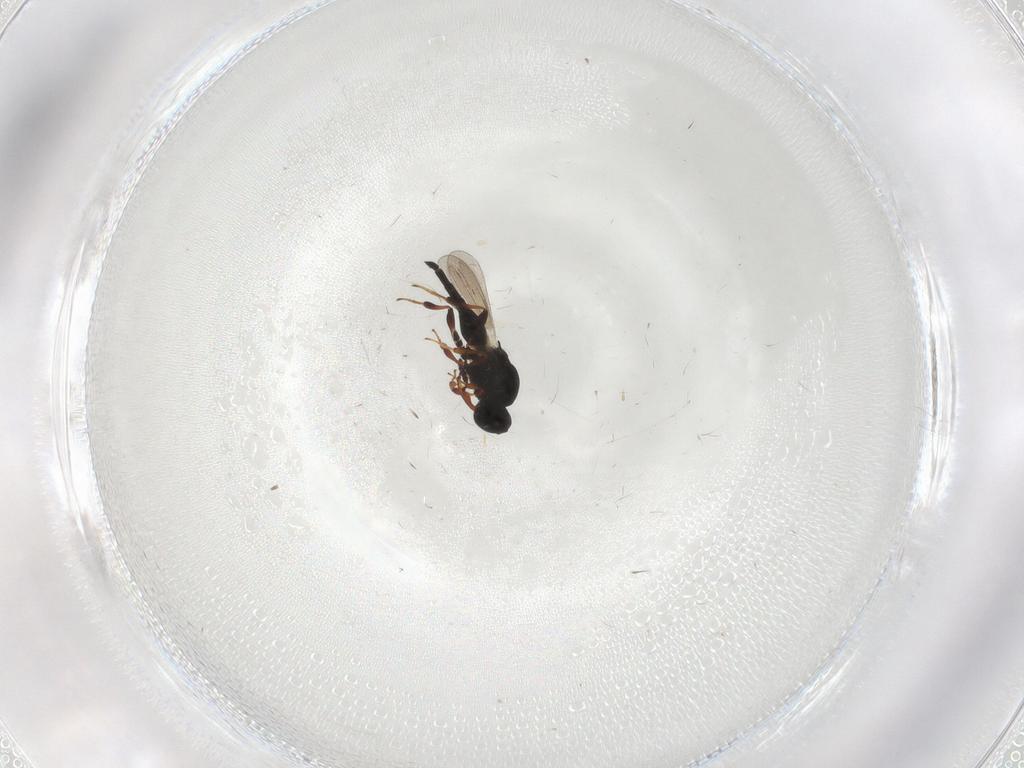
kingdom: Animalia
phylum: Arthropoda
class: Insecta
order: Hymenoptera
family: Platygastridae
